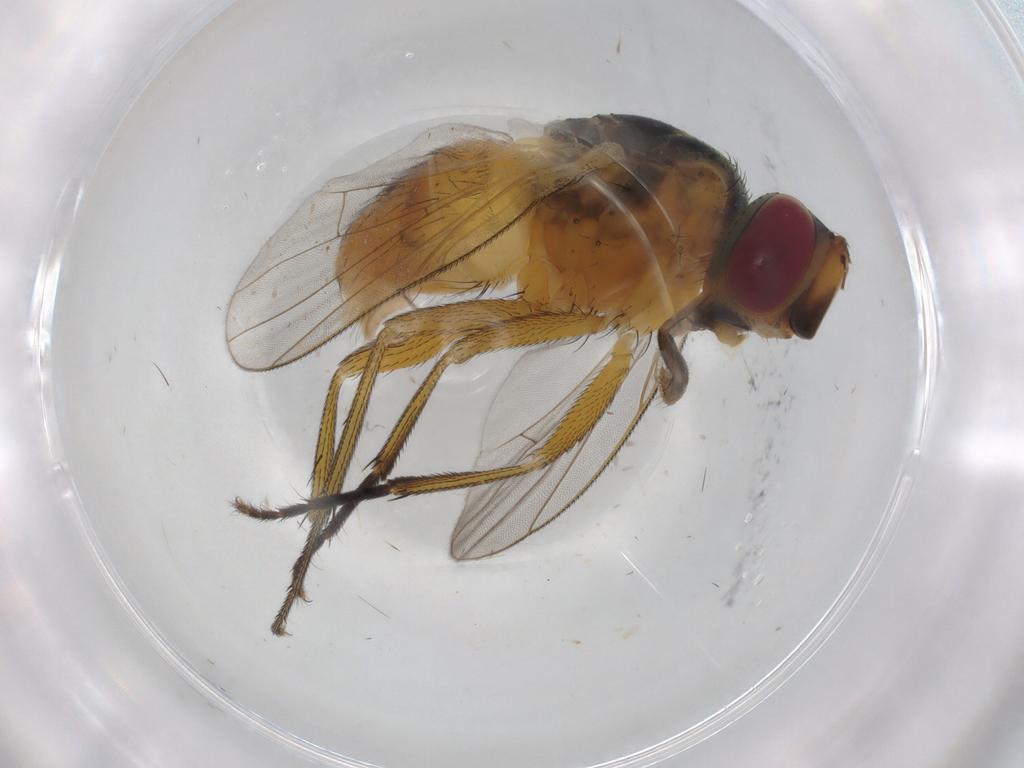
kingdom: Animalia
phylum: Arthropoda
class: Insecta
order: Diptera
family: Muscidae
